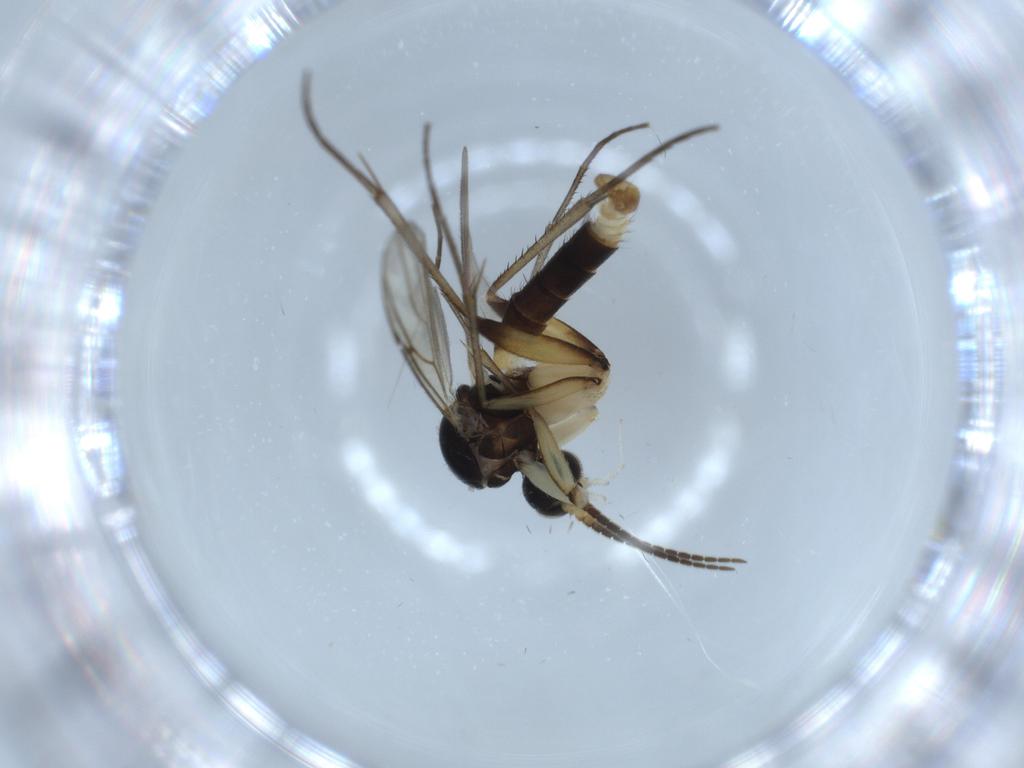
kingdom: Animalia
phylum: Arthropoda
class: Insecta
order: Diptera
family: Mycetophilidae
